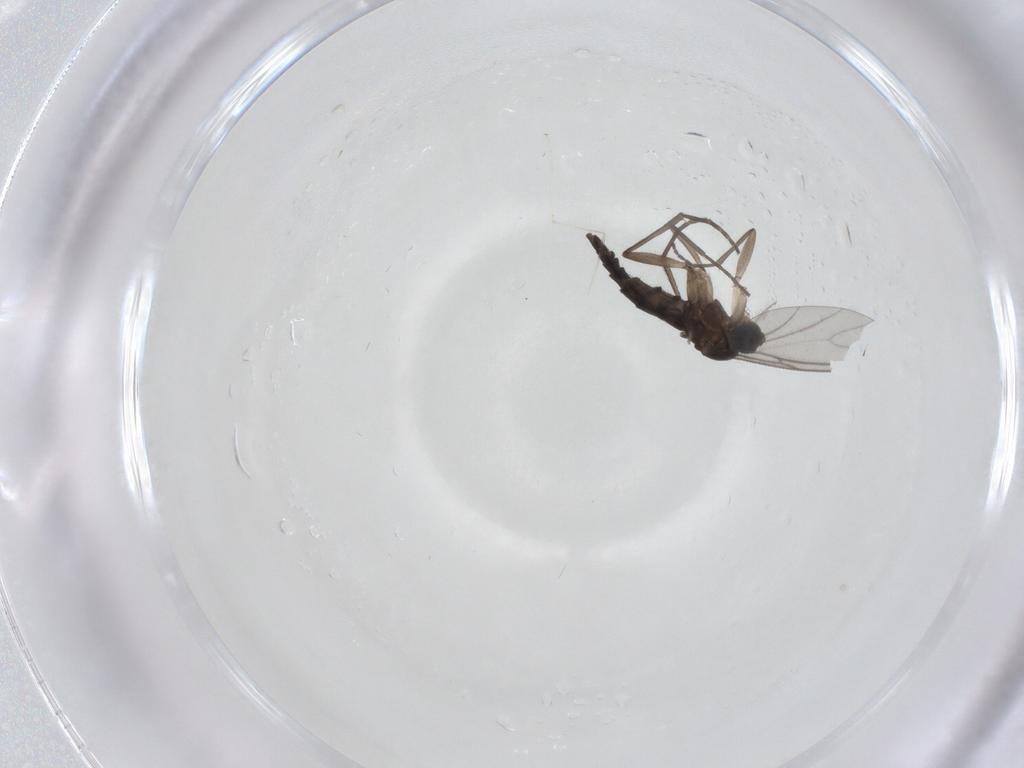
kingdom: Animalia
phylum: Arthropoda
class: Insecta
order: Diptera
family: Cecidomyiidae
